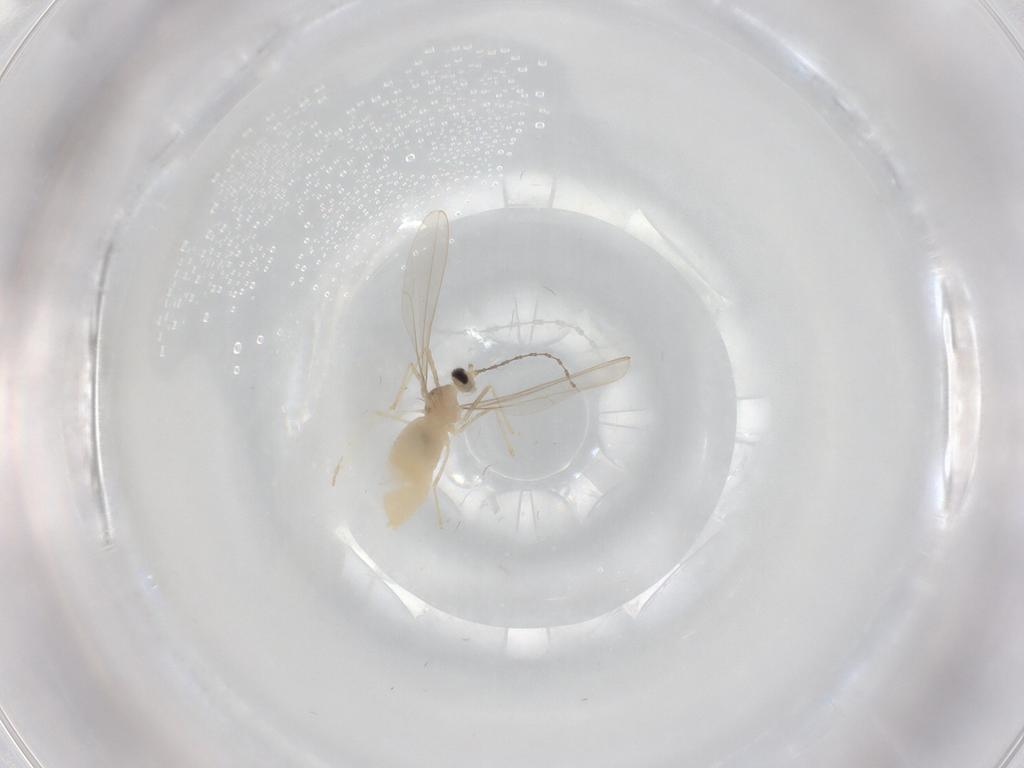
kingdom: Animalia
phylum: Arthropoda
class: Insecta
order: Diptera
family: Cecidomyiidae
